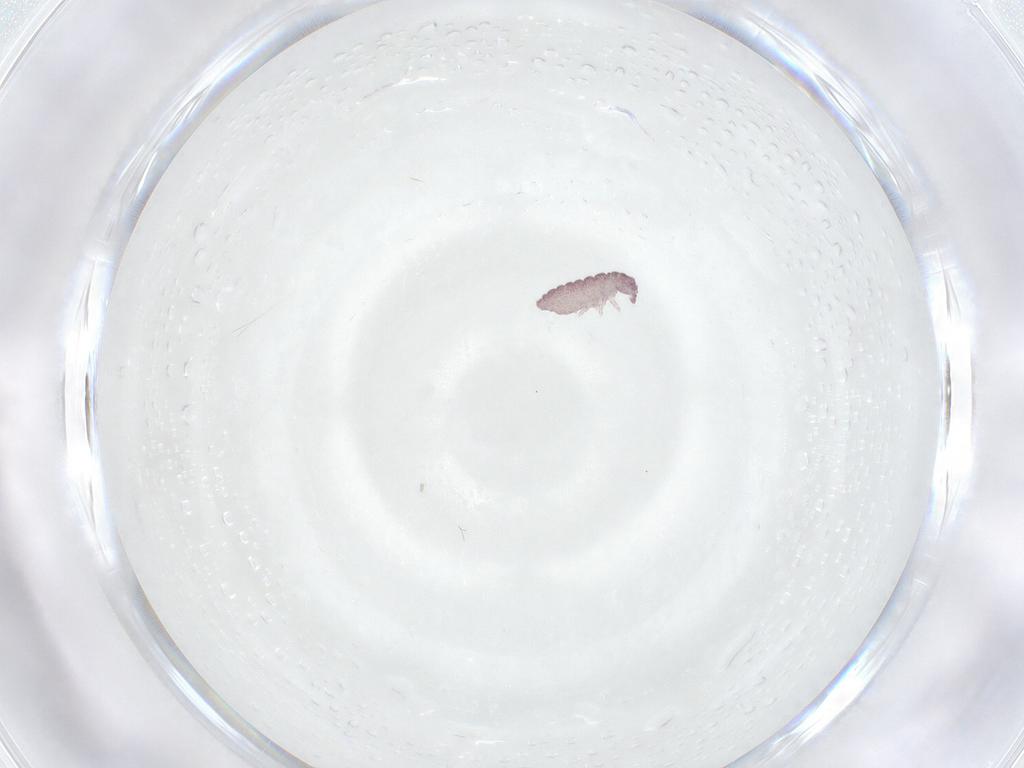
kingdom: Animalia
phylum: Arthropoda
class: Collembola
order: Poduromorpha
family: Hypogastruridae
